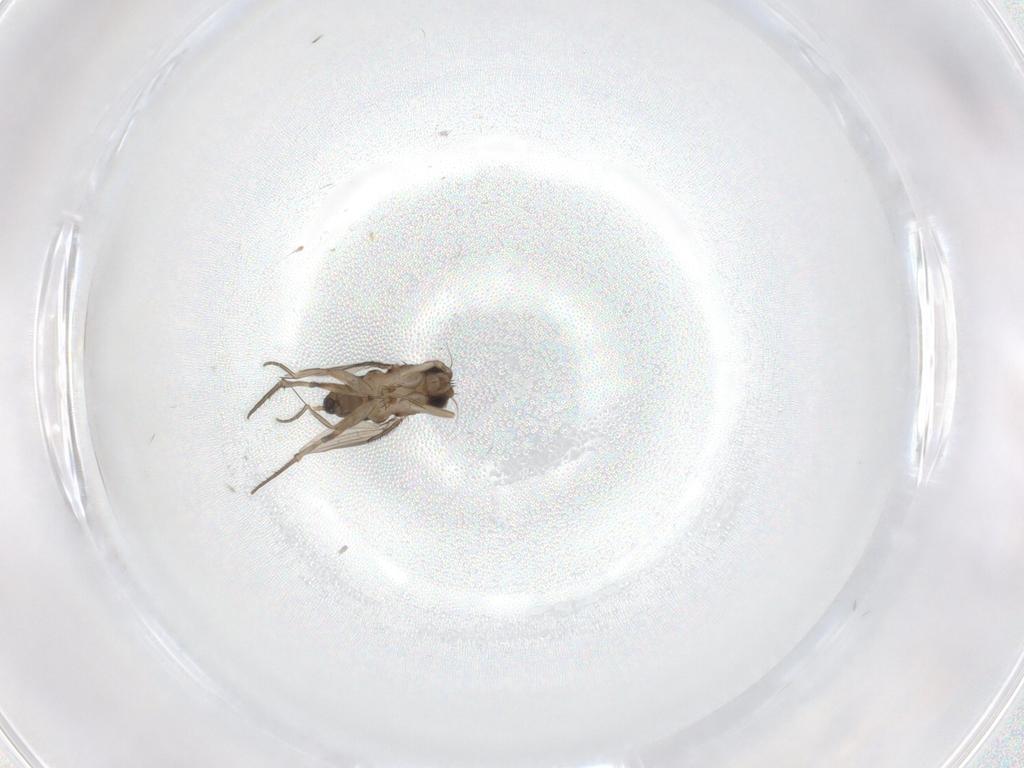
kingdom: Animalia
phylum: Arthropoda
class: Insecta
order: Diptera
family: Phoridae
